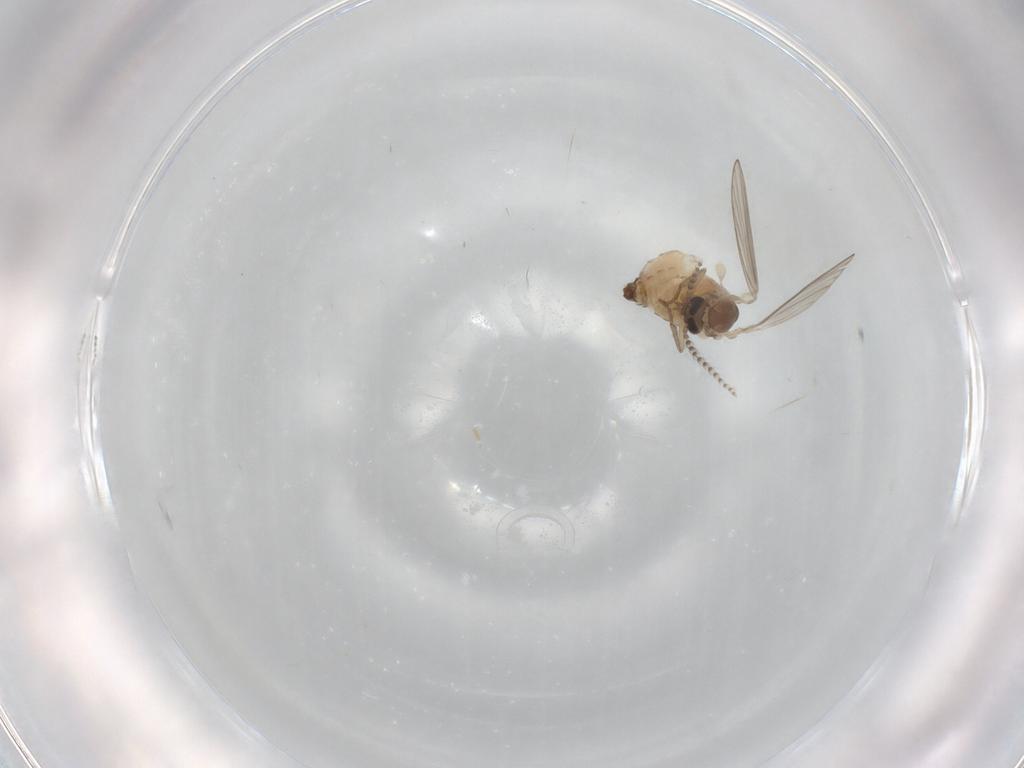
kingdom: Animalia
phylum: Arthropoda
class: Insecta
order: Diptera
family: Psychodidae
